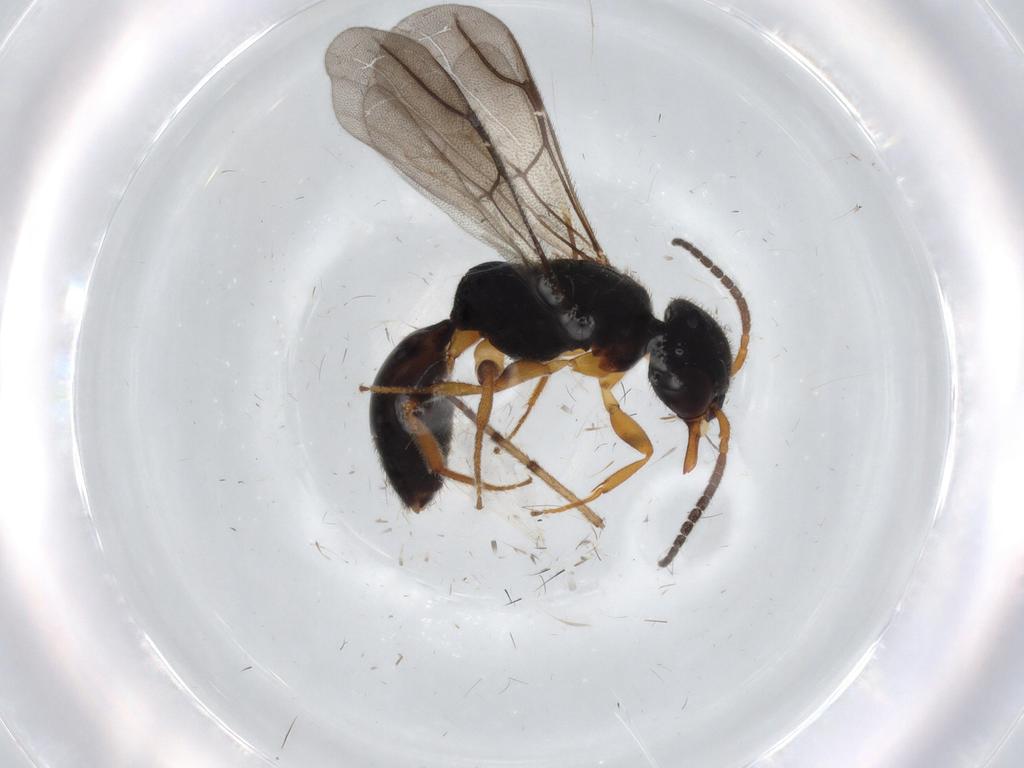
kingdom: Animalia
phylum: Arthropoda
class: Insecta
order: Hymenoptera
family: Bethylidae
